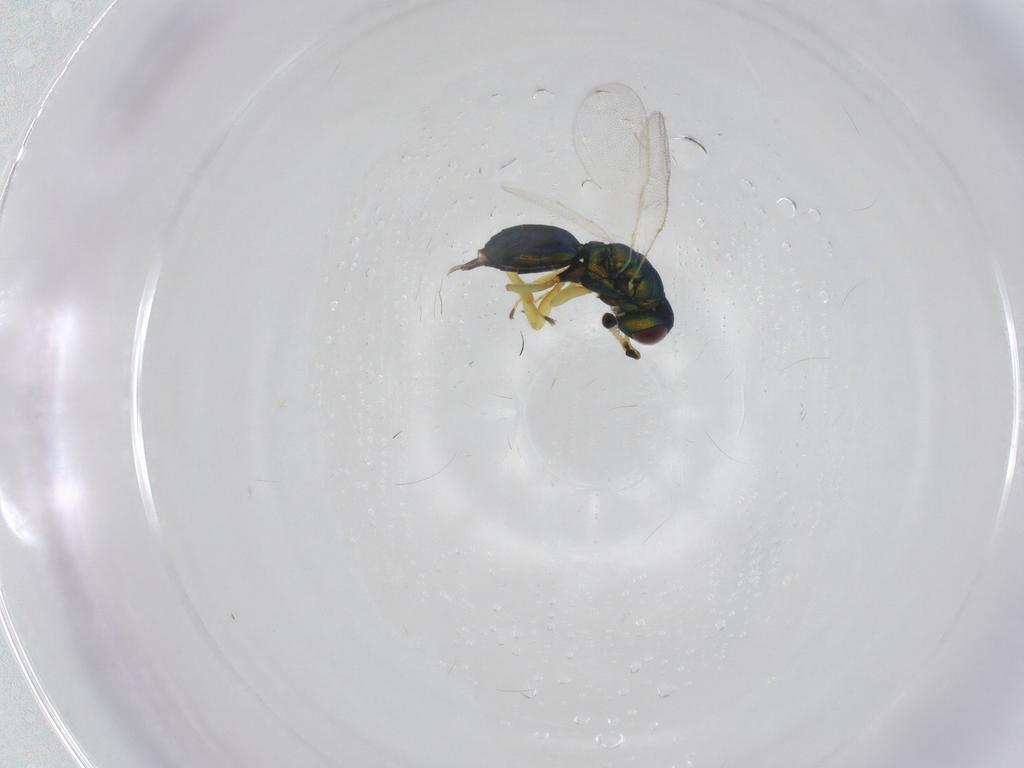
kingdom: Animalia
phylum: Arthropoda
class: Insecta
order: Hymenoptera
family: Pteromalidae
